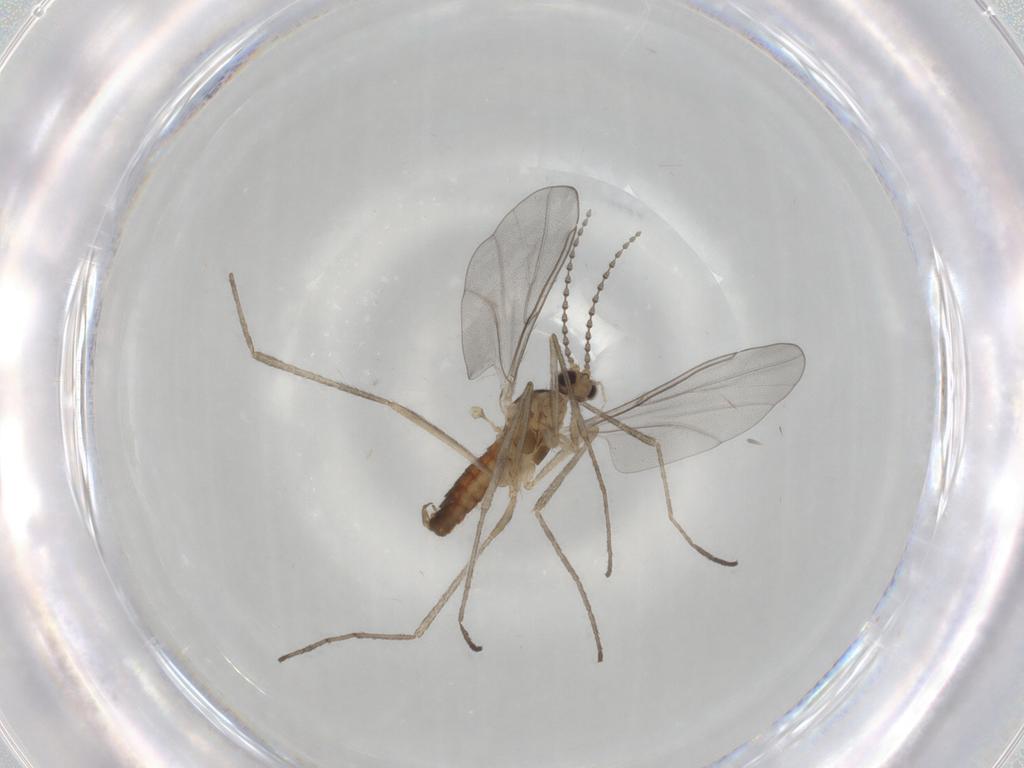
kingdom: Animalia
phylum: Arthropoda
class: Insecta
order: Diptera
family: Cecidomyiidae
